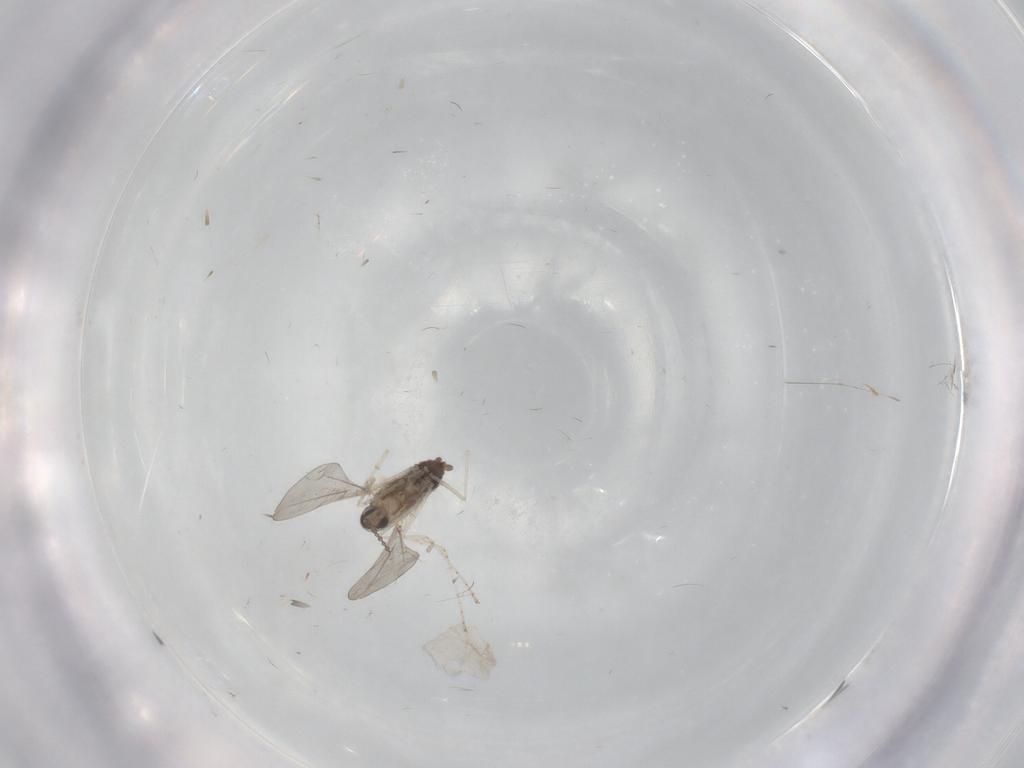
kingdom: Animalia
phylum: Arthropoda
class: Insecta
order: Diptera
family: Cecidomyiidae
